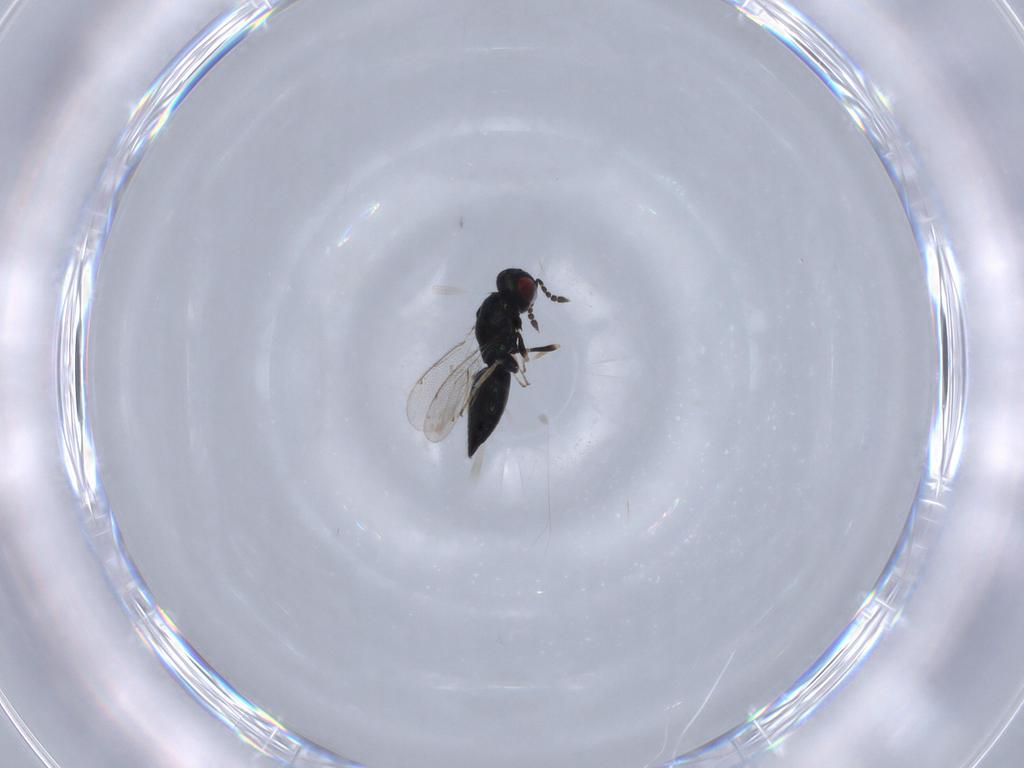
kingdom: Animalia
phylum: Arthropoda
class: Insecta
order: Hymenoptera
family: Eulophidae
